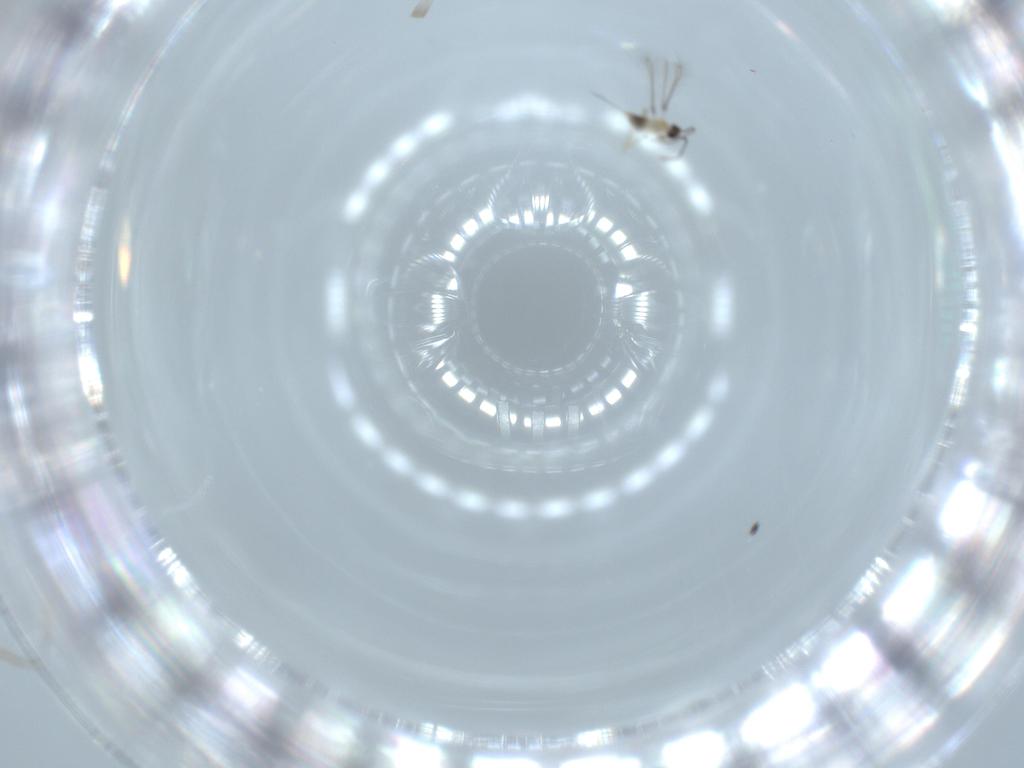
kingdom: Animalia
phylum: Arthropoda
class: Insecta
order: Hymenoptera
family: Mymaridae
